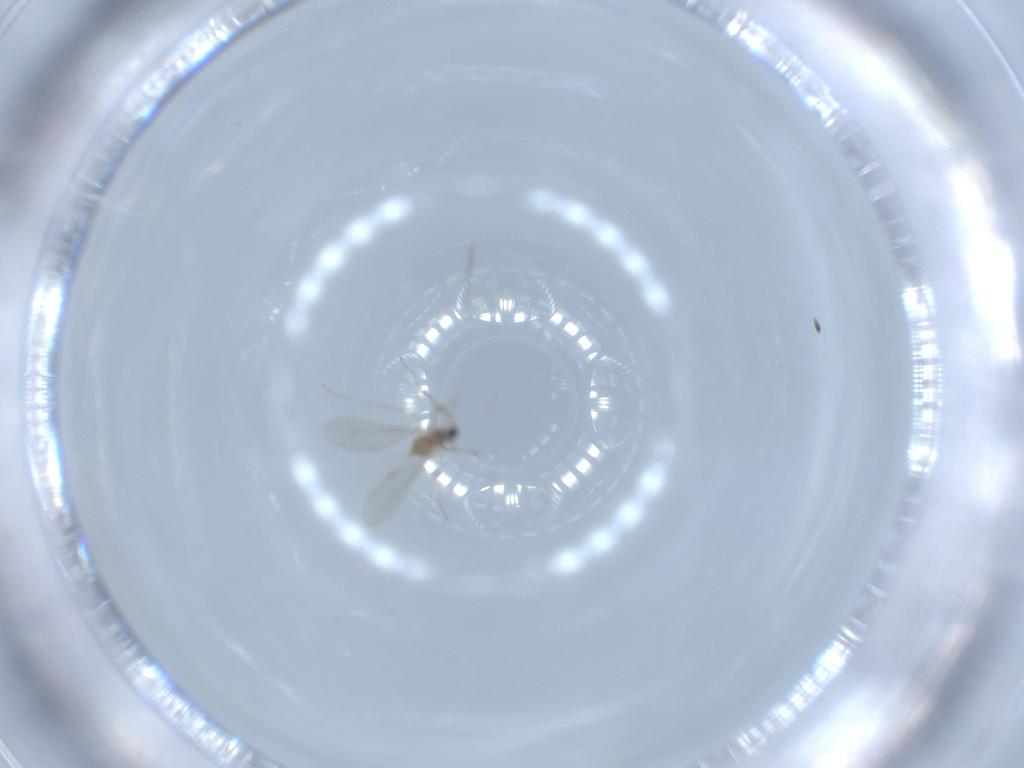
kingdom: Animalia
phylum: Arthropoda
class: Insecta
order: Diptera
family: Cecidomyiidae
